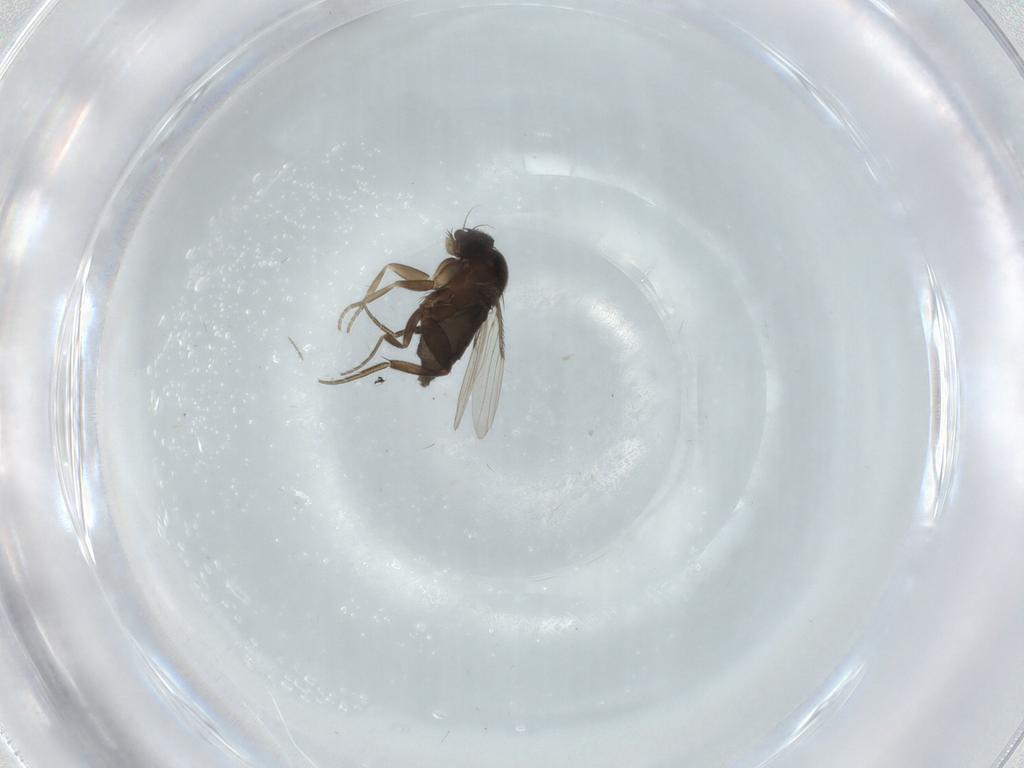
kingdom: Animalia
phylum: Arthropoda
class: Insecta
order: Diptera
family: Phoridae
